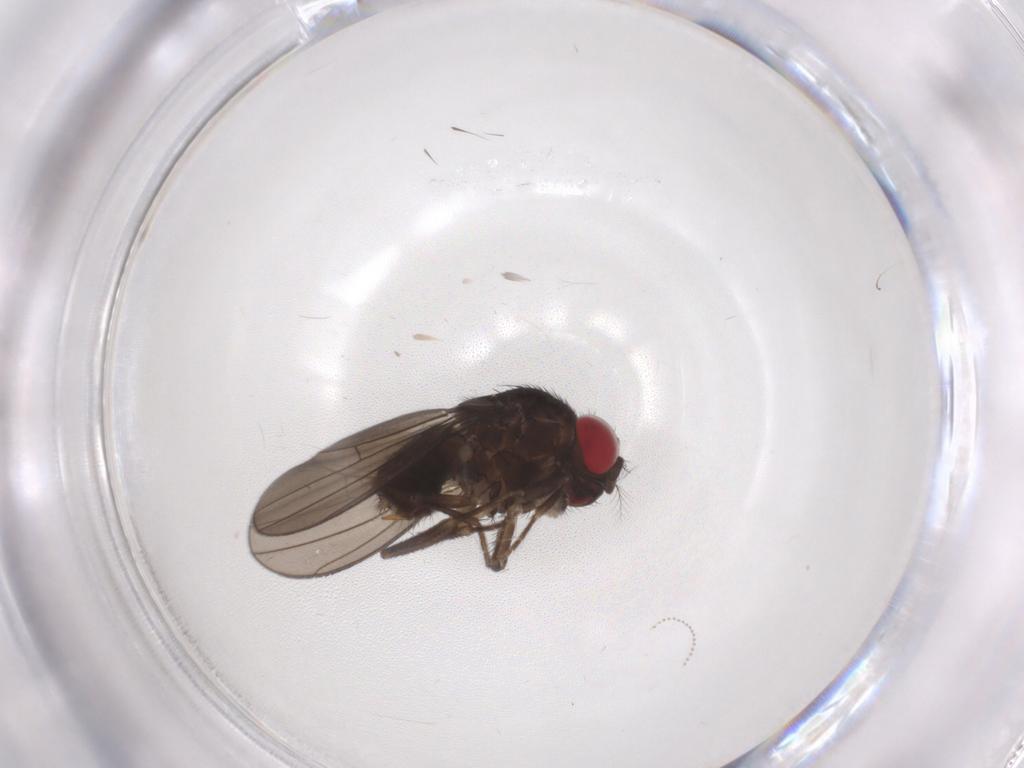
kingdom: Animalia
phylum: Arthropoda
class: Insecta
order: Diptera
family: Drosophilidae
